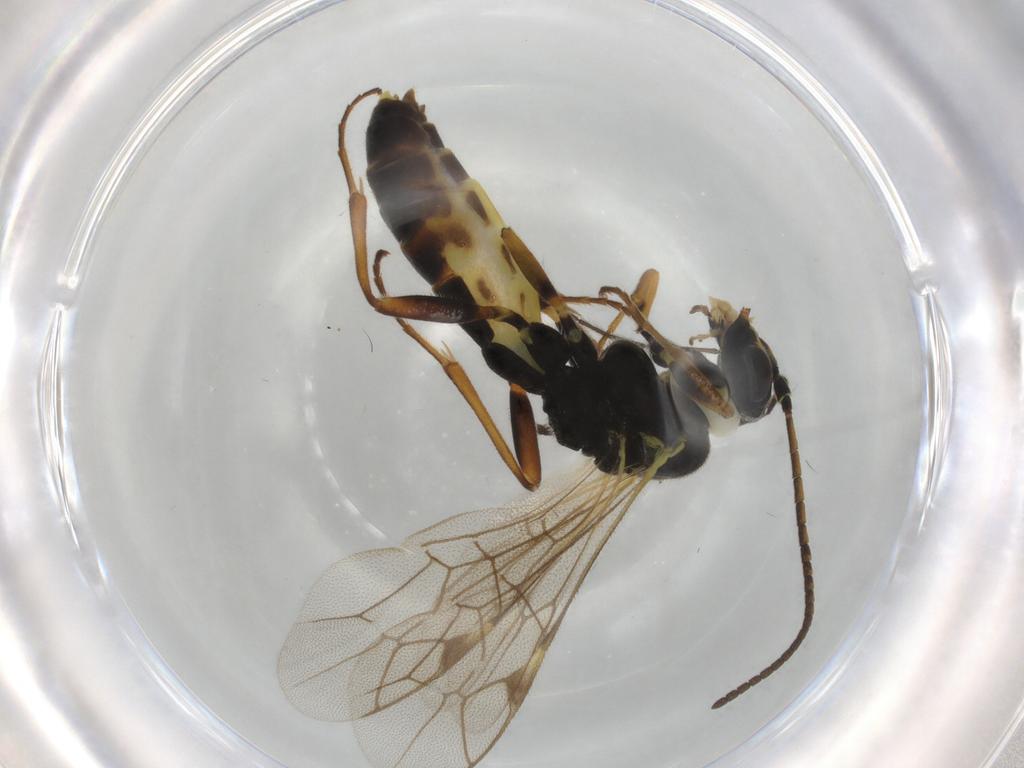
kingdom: Animalia
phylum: Arthropoda
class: Insecta
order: Hymenoptera
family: Ichneumonidae
